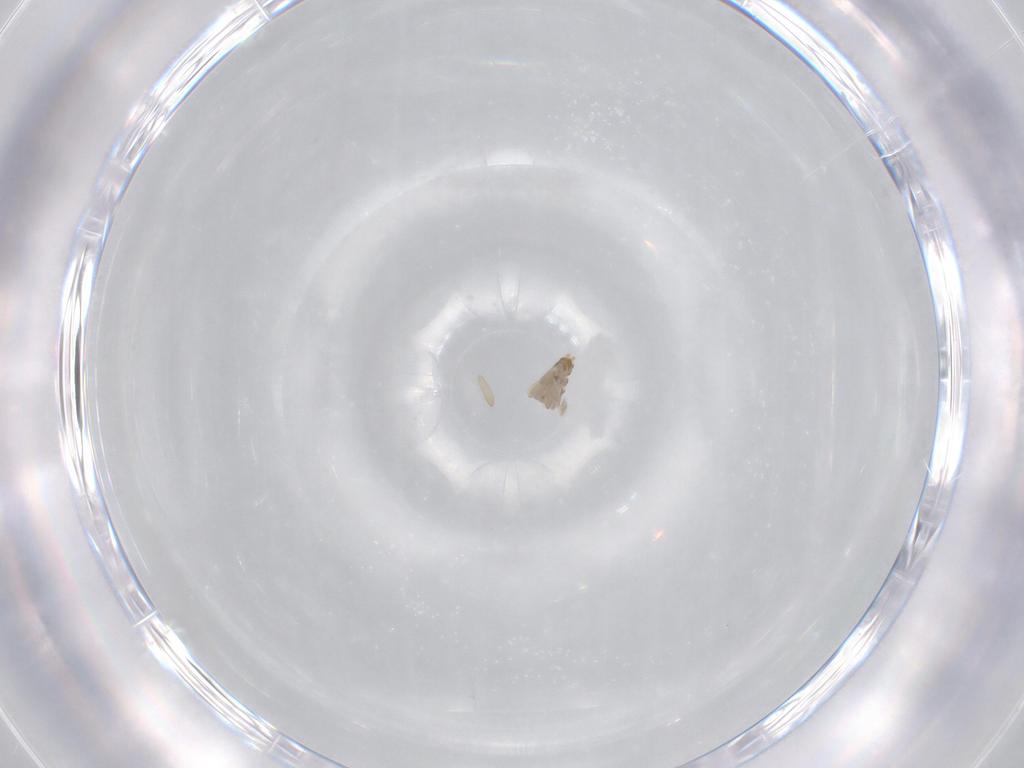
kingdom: Animalia
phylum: Arthropoda
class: Insecta
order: Diptera
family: Ceratopogonidae
